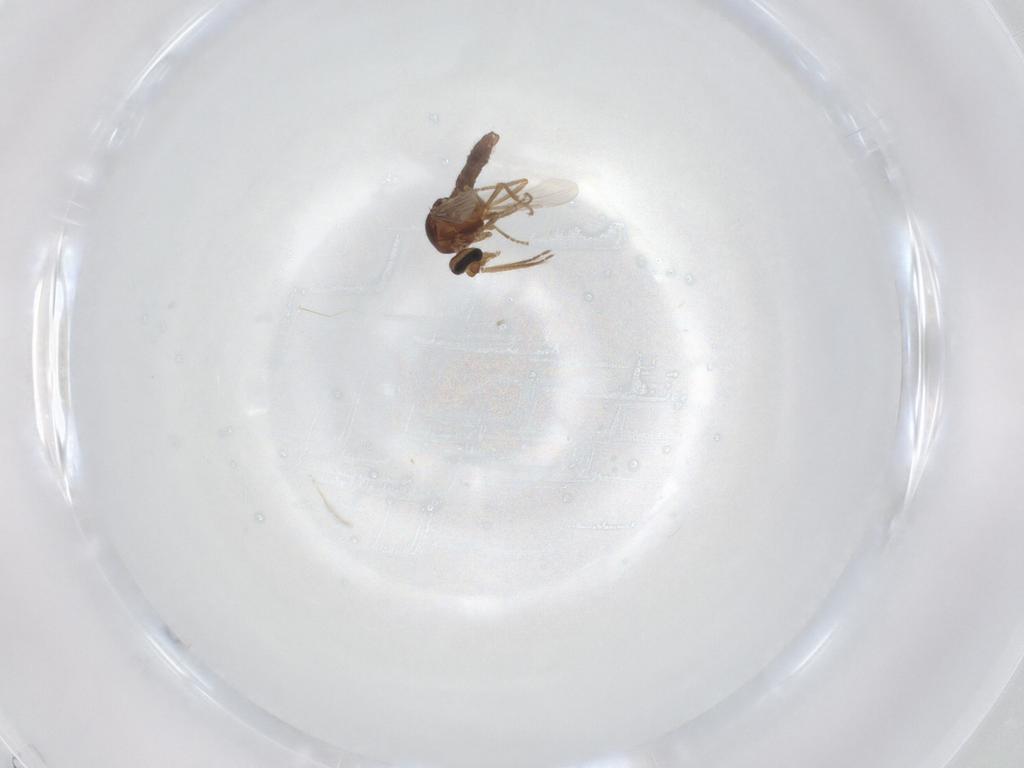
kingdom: Animalia
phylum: Arthropoda
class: Insecta
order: Diptera
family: Ceratopogonidae
